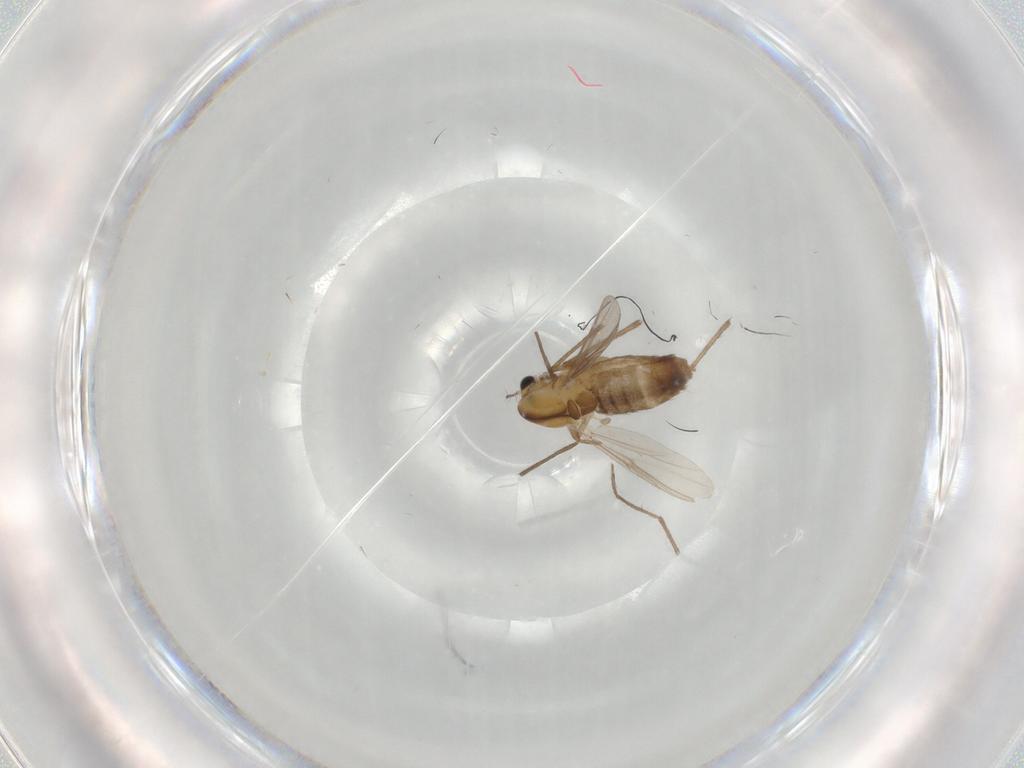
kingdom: Animalia
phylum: Arthropoda
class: Insecta
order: Diptera
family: Chironomidae
